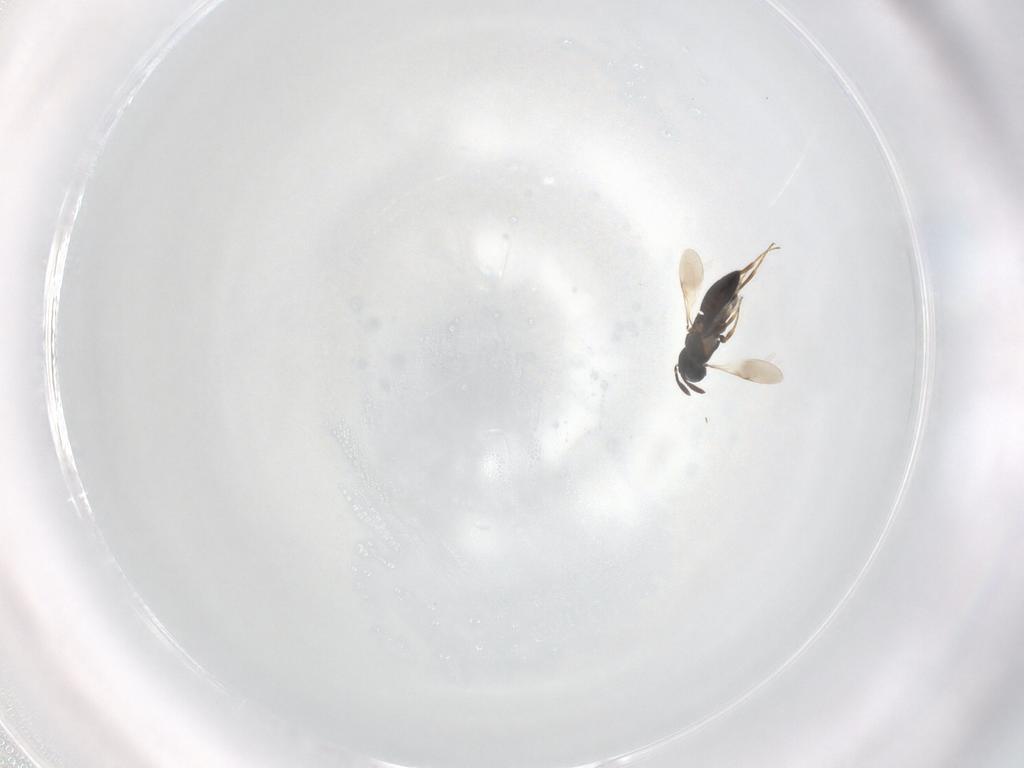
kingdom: Animalia
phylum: Arthropoda
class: Insecta
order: Hymenoptera
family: Scelionidae
